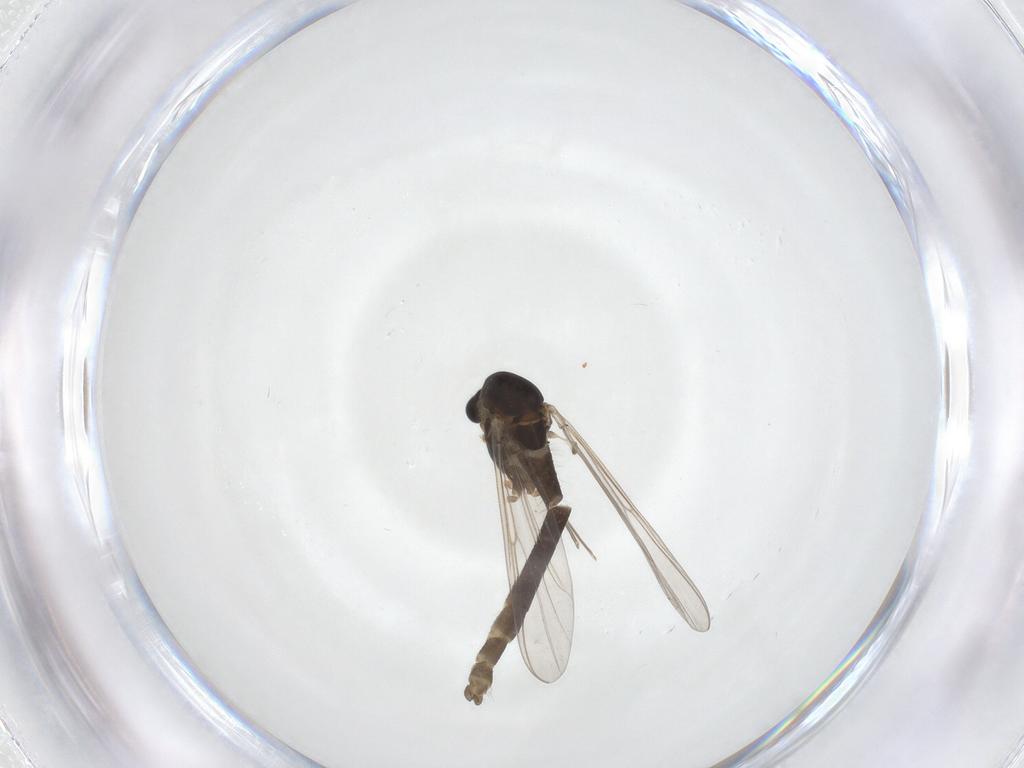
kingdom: Animalia
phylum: Arthropoda
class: Insecta
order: Diptera
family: Chironomidae
